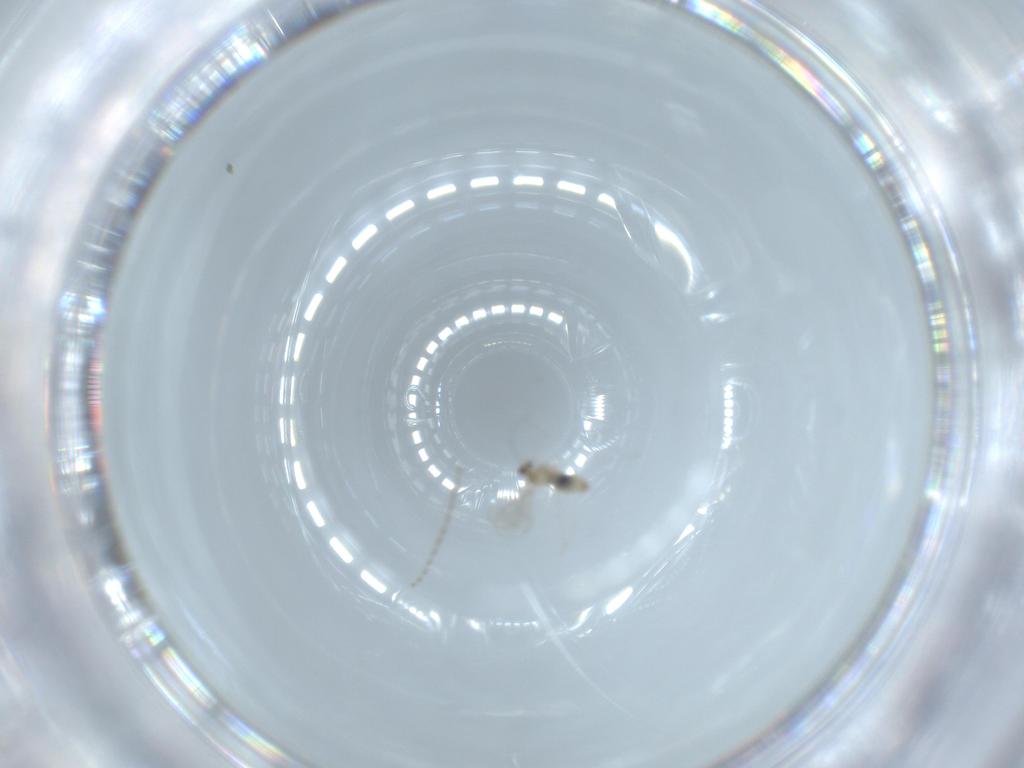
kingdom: Animalia
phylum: Arthropoda
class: Insecta
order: Diptera
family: Cecidomyiidae
